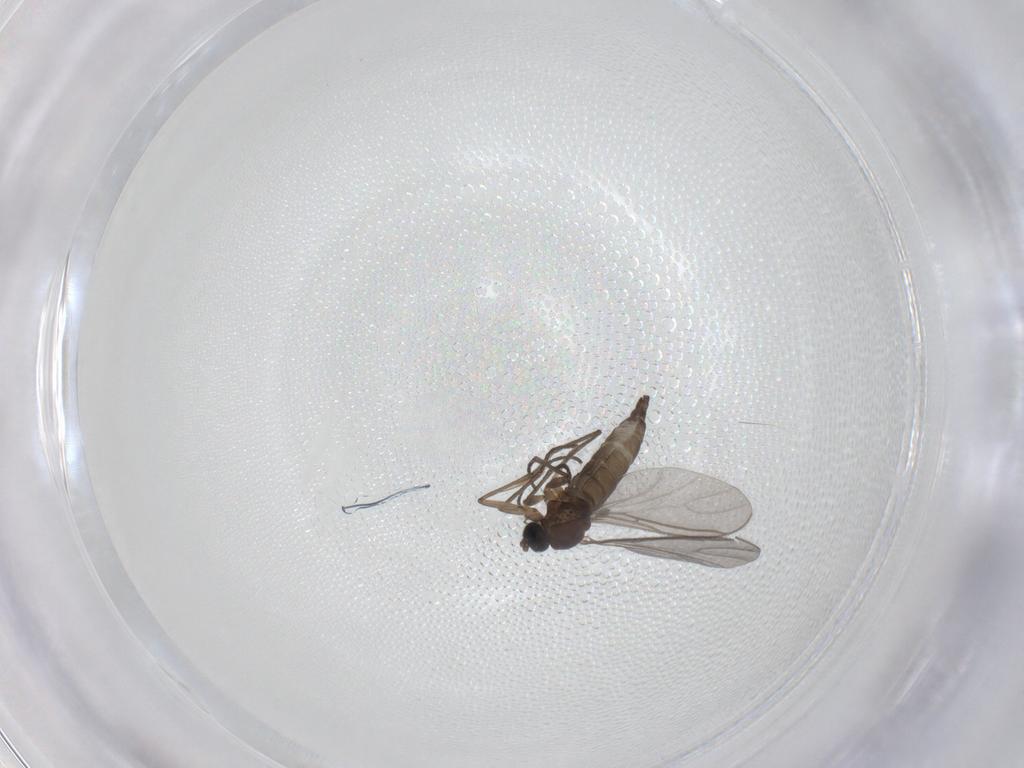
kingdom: Animalia
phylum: Arthropoda
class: Insecta
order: Diptera
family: Sciaridae
